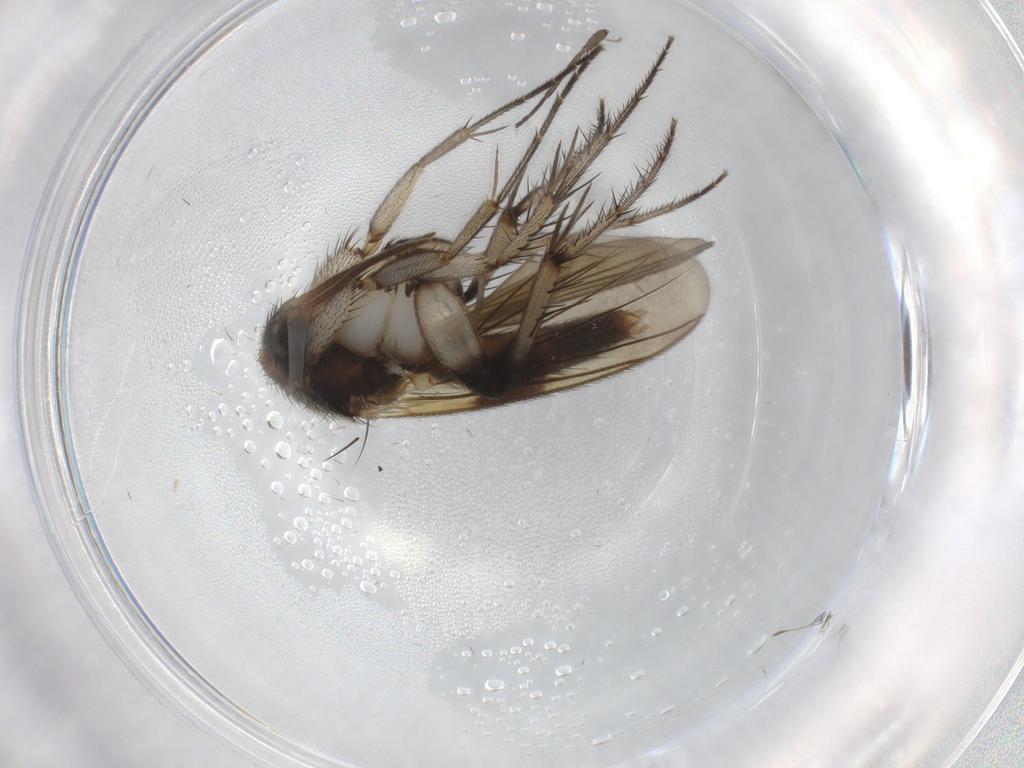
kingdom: Animalia
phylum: Arthropoda
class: Insecta
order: Diptera
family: Mycetophilidae
